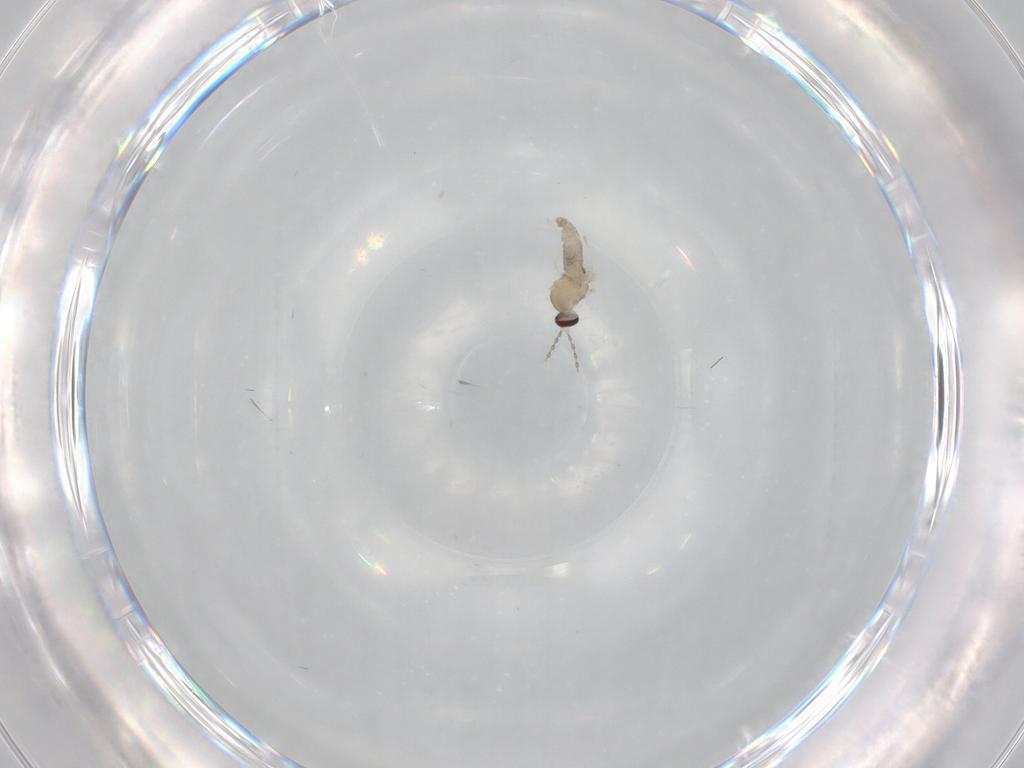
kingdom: Animalia
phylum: Arthropoda
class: Insecta
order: Diptera
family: Cecidomyiidae
